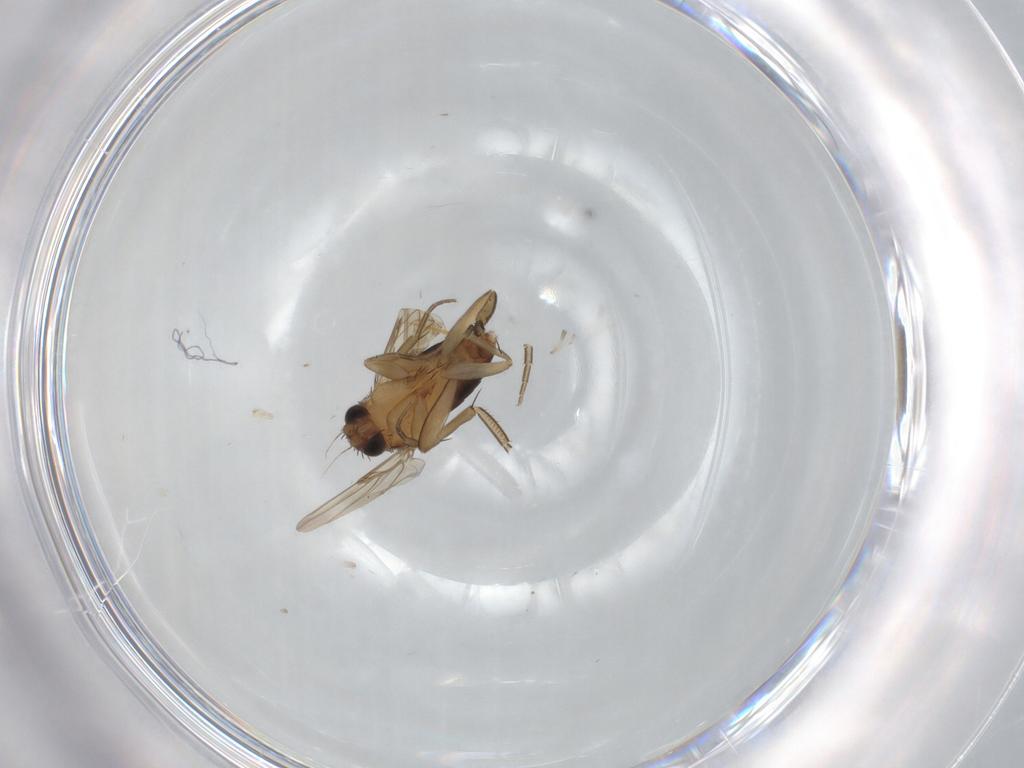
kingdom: Animalia
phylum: Arthropoda
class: Insecta
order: Diptera
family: Phoridae
